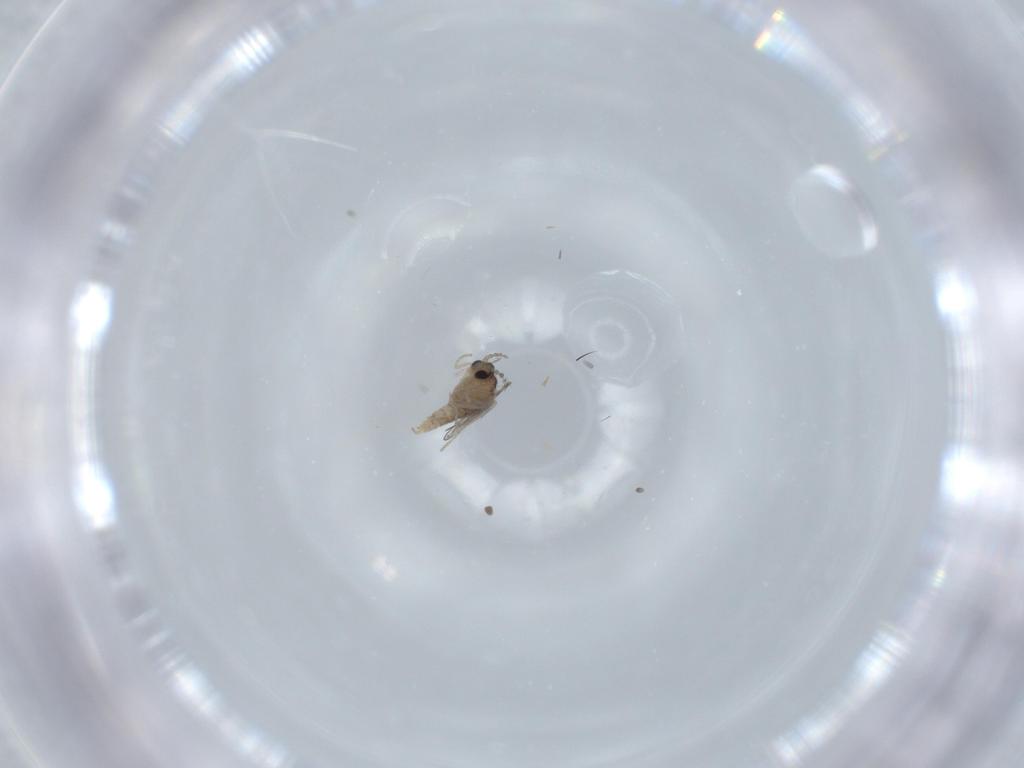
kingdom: Animalia
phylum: Arthropoda
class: Insecta
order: Diptera
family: Cecidomyiidae
